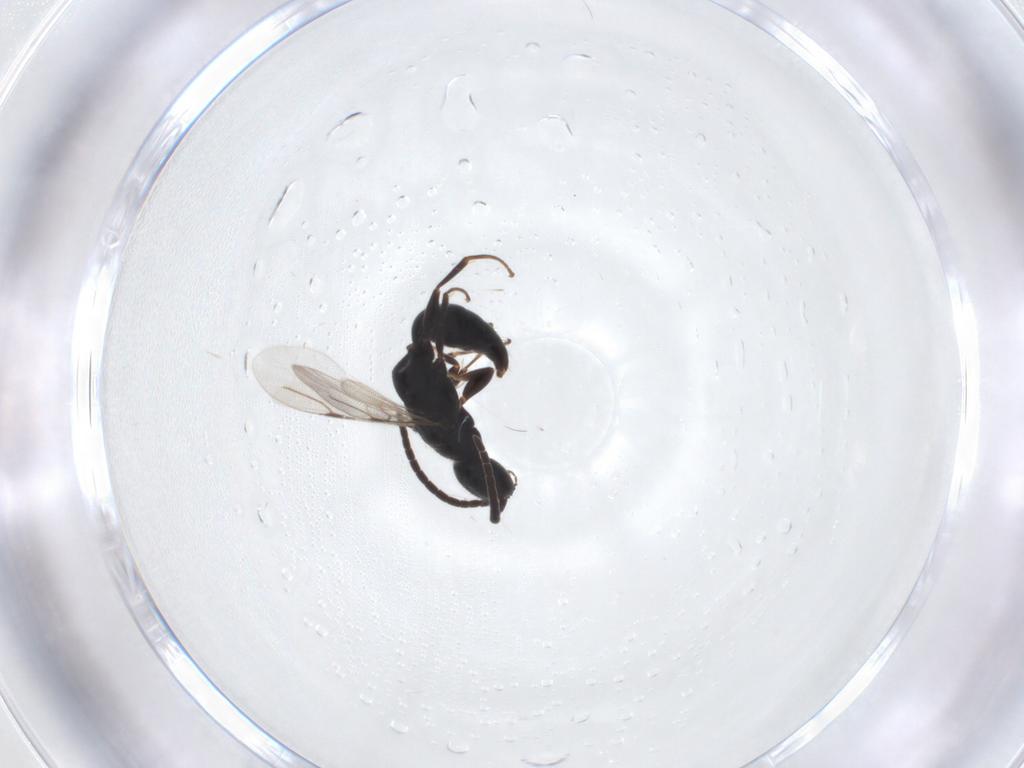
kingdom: Animalia
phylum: Arthropoda
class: Insecta
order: Hymenoptera
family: Bethylidae
